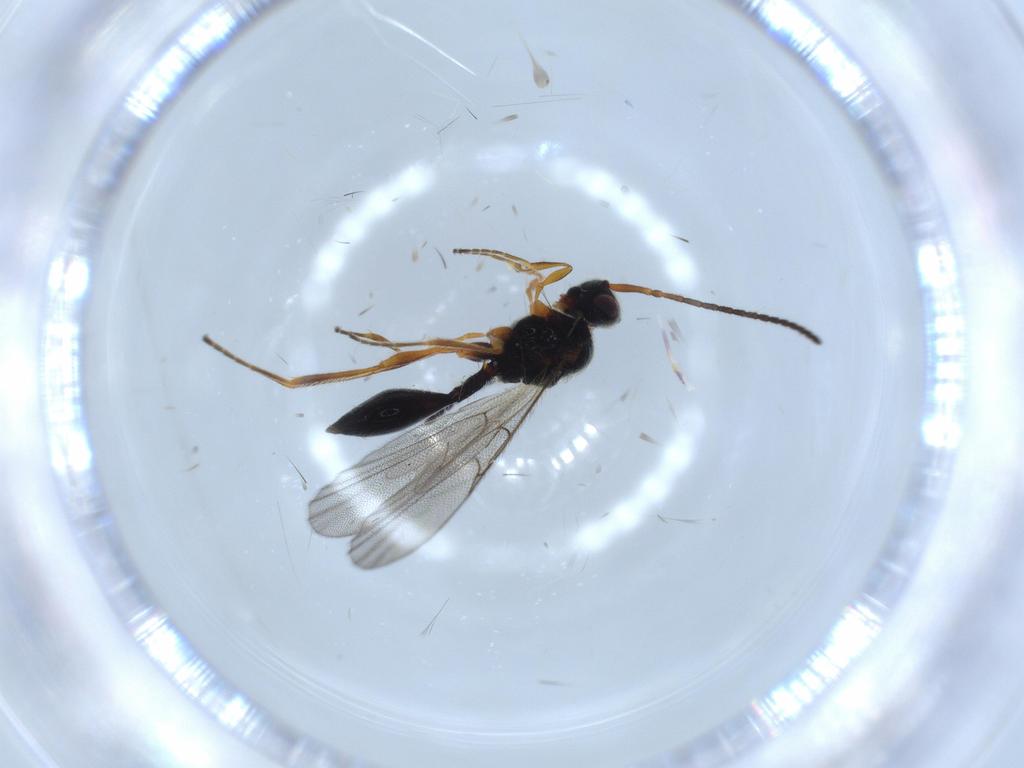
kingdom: Animalia
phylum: Arthropoda
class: Insecta
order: Hymenoptera
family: Diapriidae
